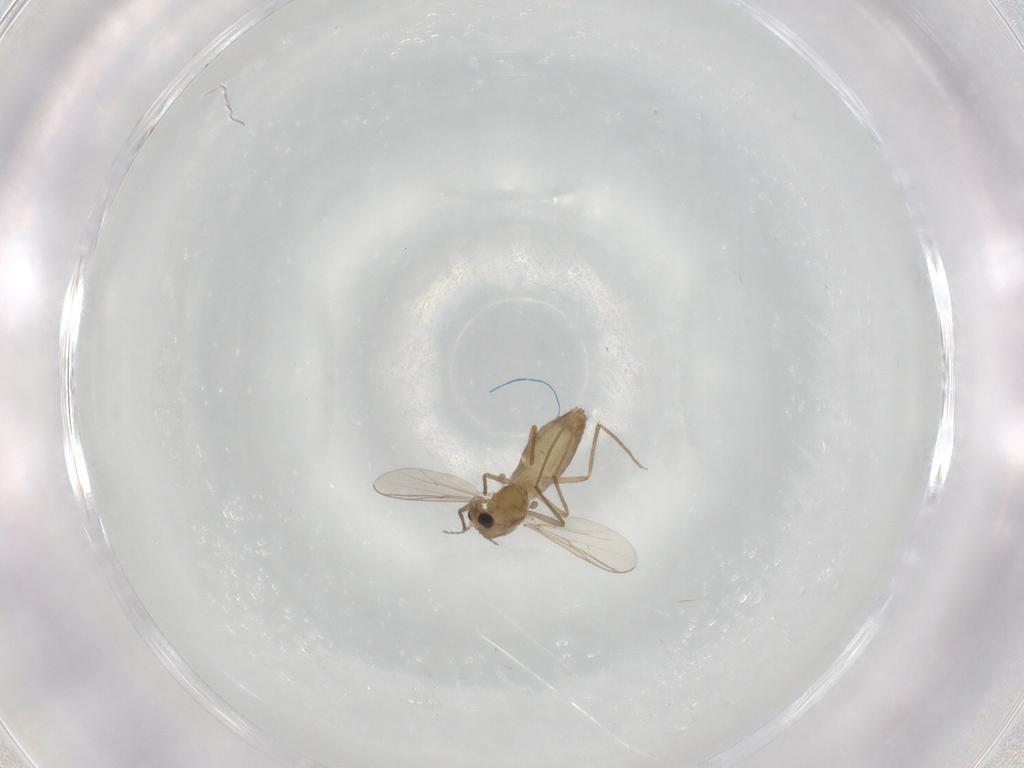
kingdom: Animalia
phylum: Arthropoda
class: Insecta
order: Diptera
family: Chironomidae
